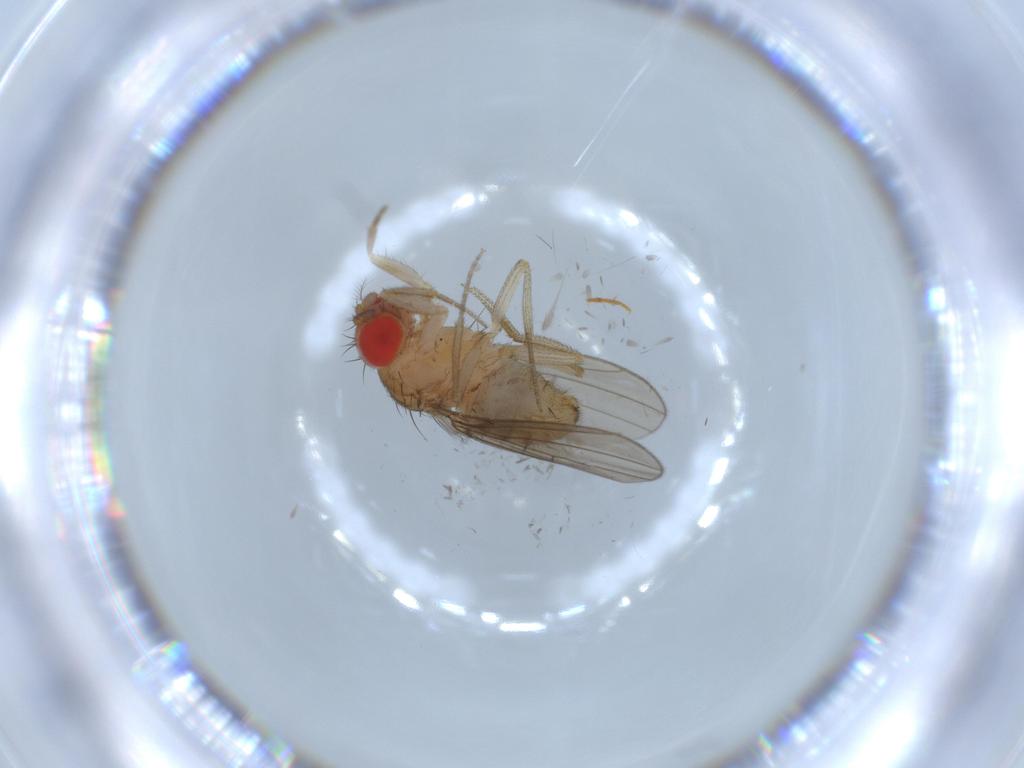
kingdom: Animalia
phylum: Arthropoda
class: Insecta
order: Diptera
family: Drosophilidae
